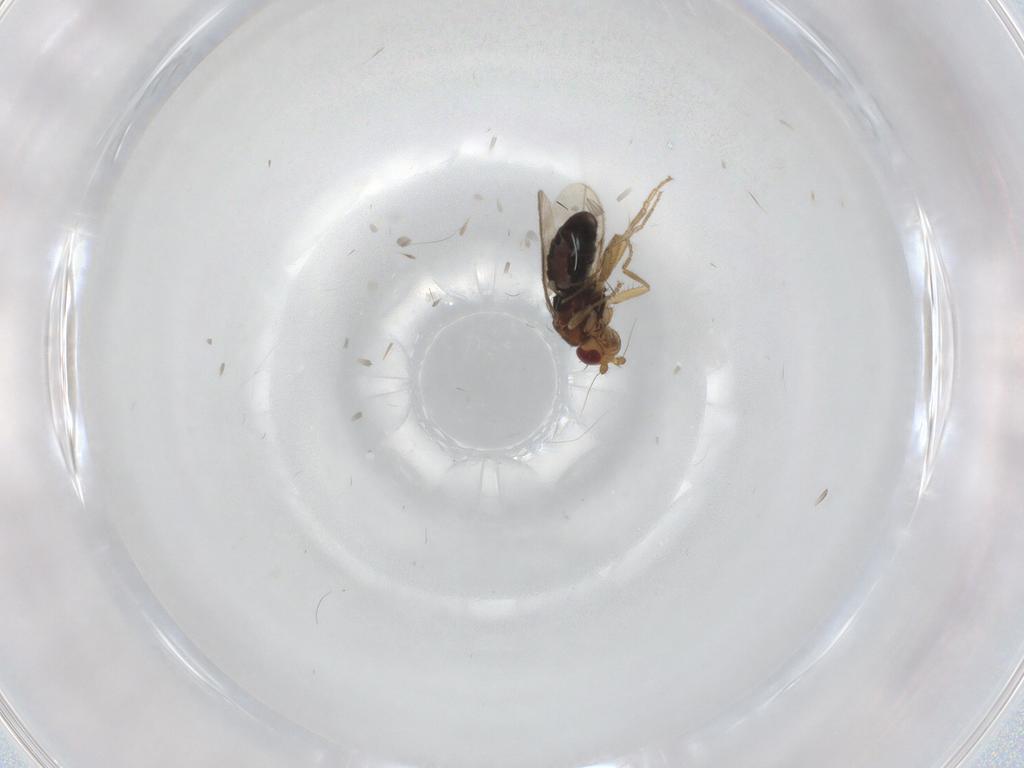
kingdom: Animalia
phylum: Arthropoda
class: Insecta
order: Diptera
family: Sphaeroceridae
